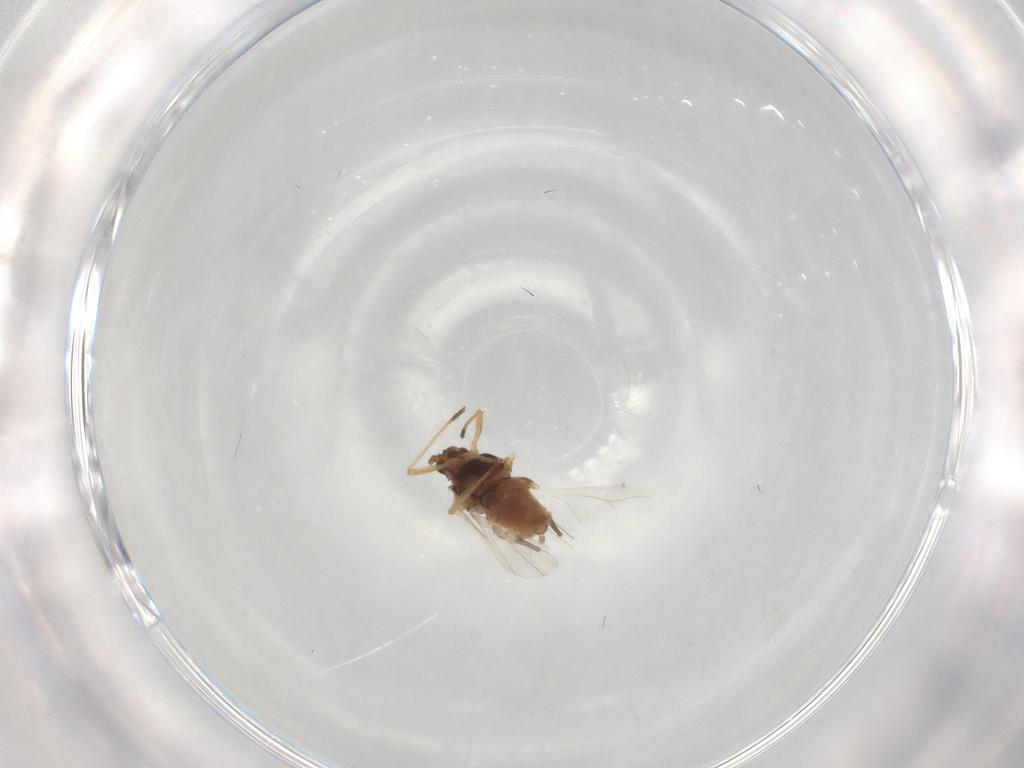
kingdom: Animalia
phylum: Arthropoda
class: Insecta
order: Hemiptera
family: Aphididae
